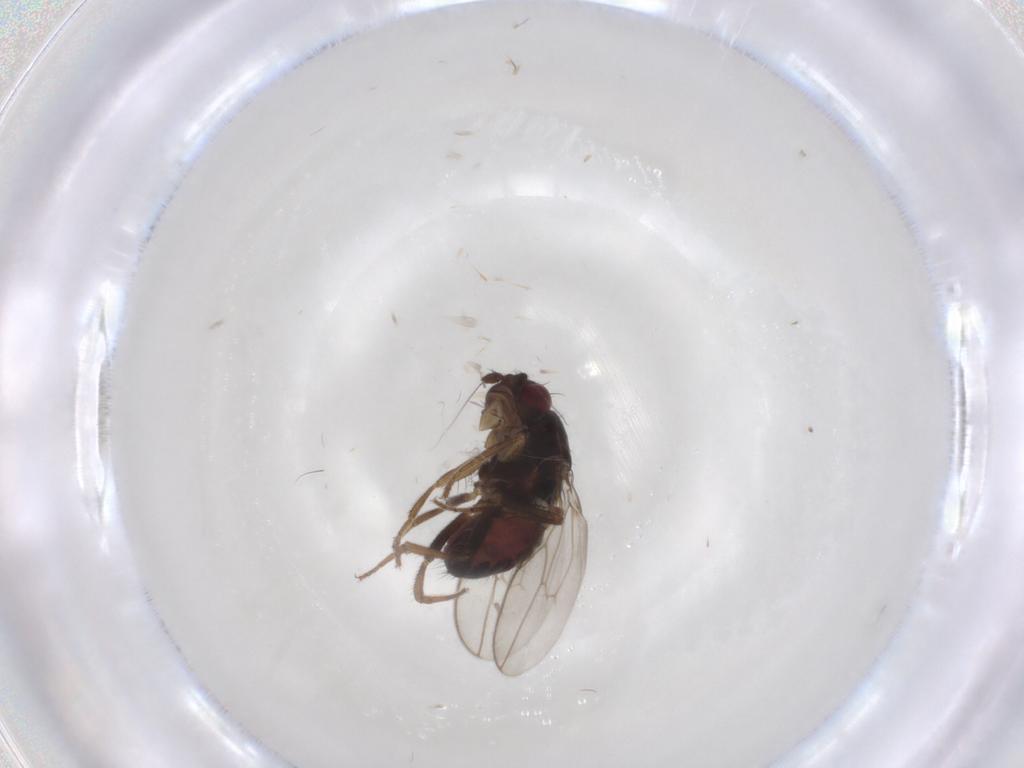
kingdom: Animalia
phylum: Arthropoda
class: Insecta
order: Diptera
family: Sphaeroceridae
